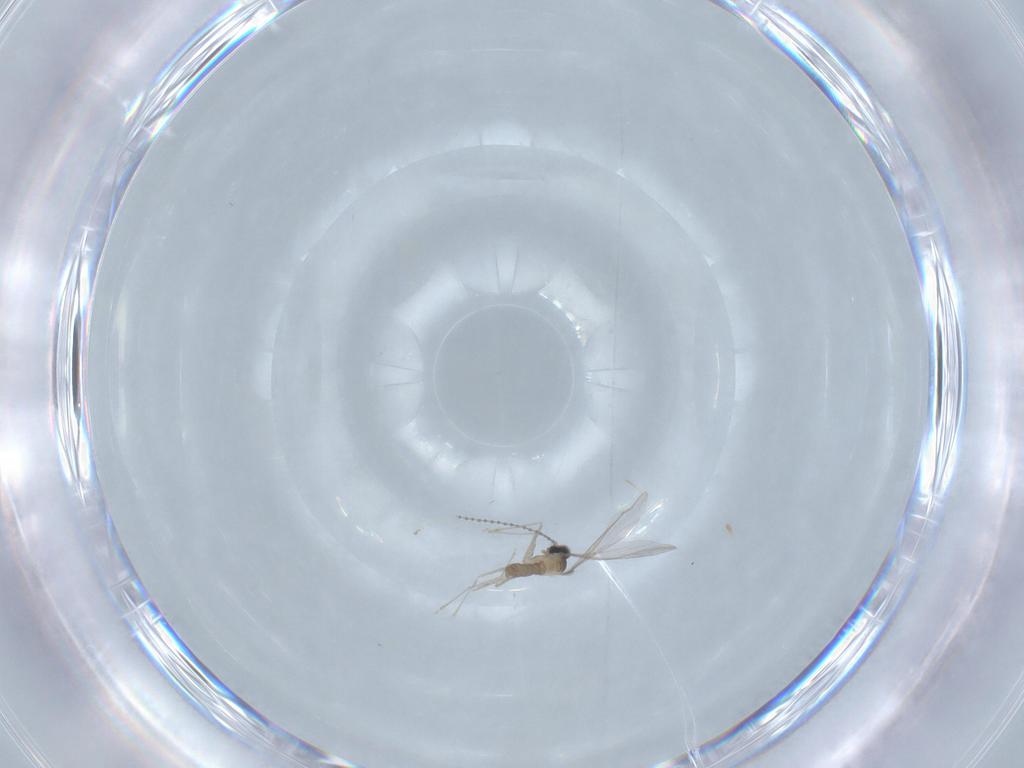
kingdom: Animalia
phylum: Arthropoda
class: Insecta
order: Diptera
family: Cecidomyiidae
